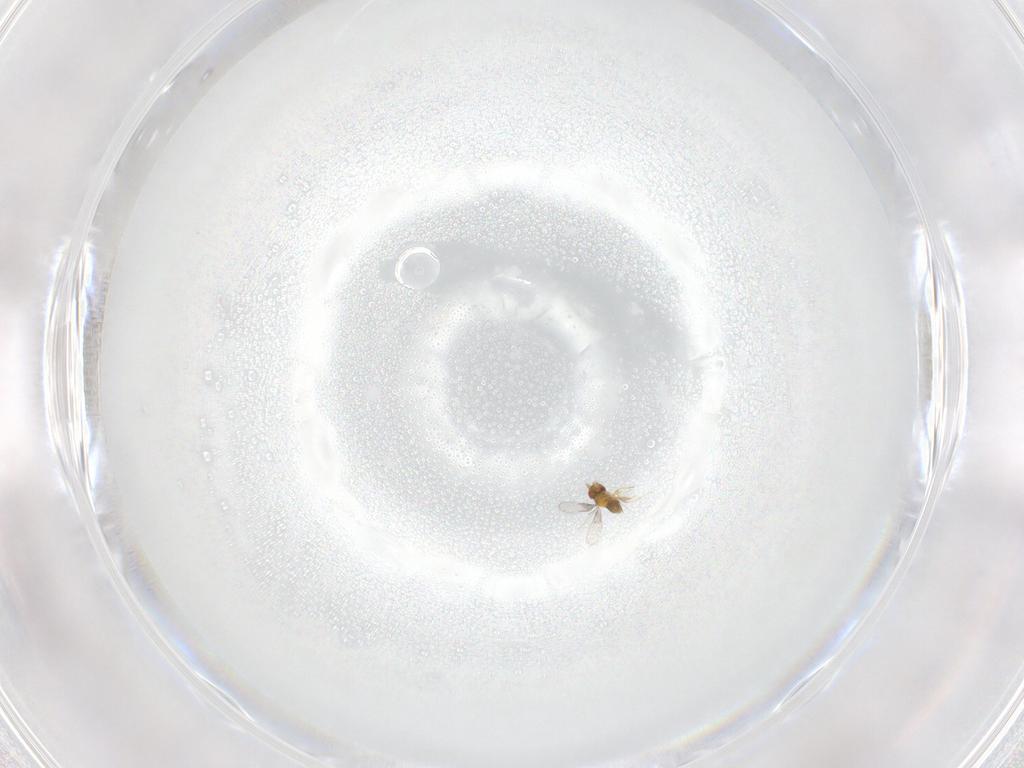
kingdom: Animalia
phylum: Arthropoda
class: Insecta
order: Hymenoptera
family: Trichogrammatidae
